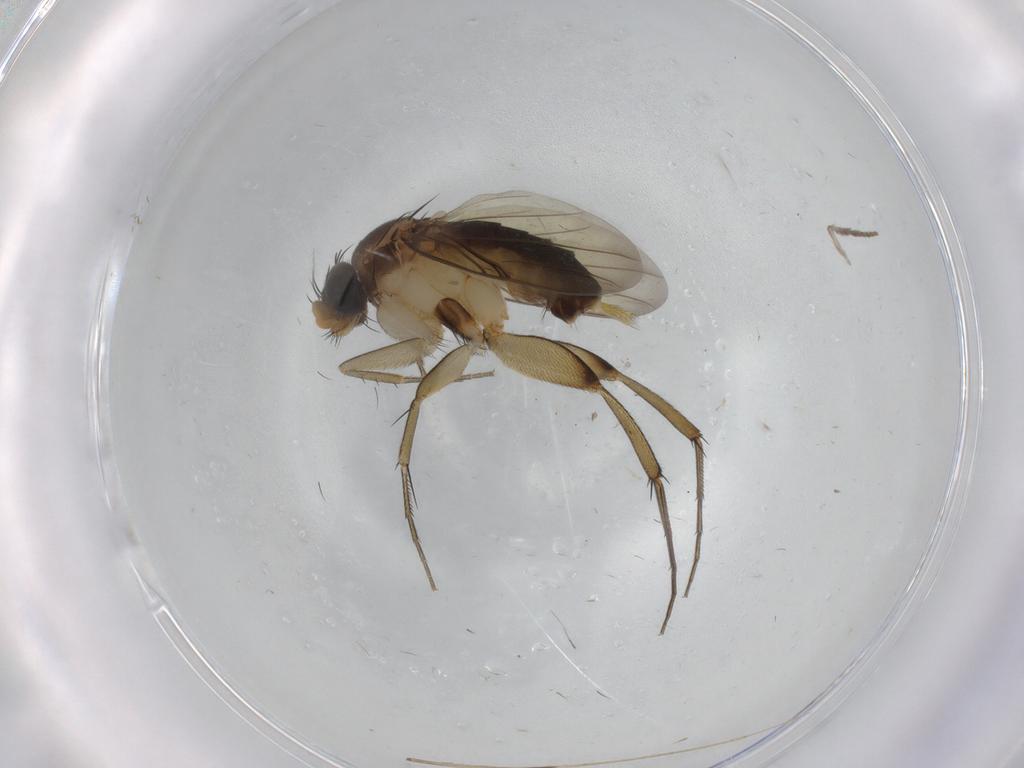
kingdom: Animalia
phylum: Arthropoda
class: Insecta
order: Diptera
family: Phoridae
